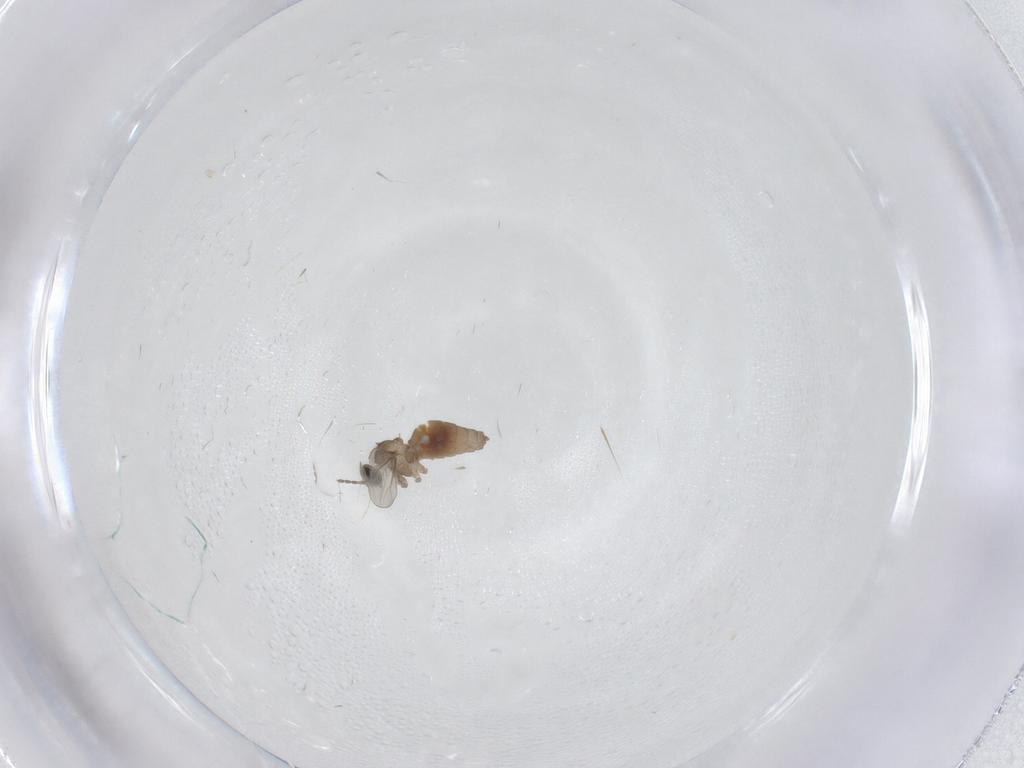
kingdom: Animalia
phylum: Arthropoda
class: Insecta
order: Diptera
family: Cecidomyiidae
